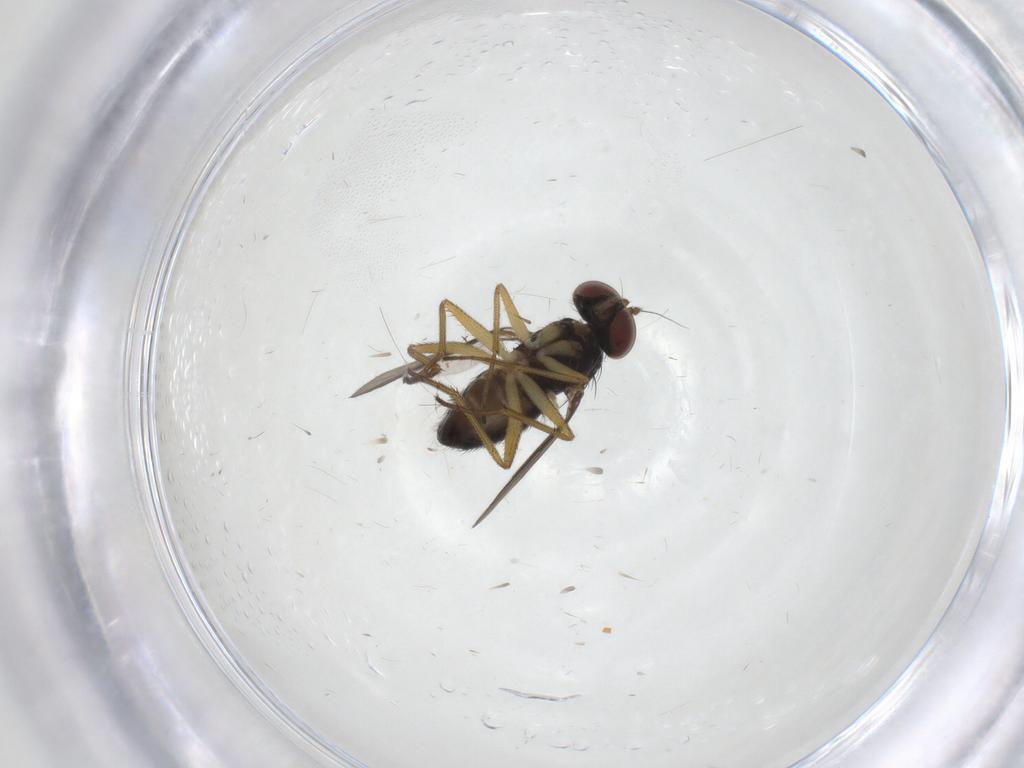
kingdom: Animalia
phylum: Arthropoda
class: Insecta
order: Diptera
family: Dolichopodidae
